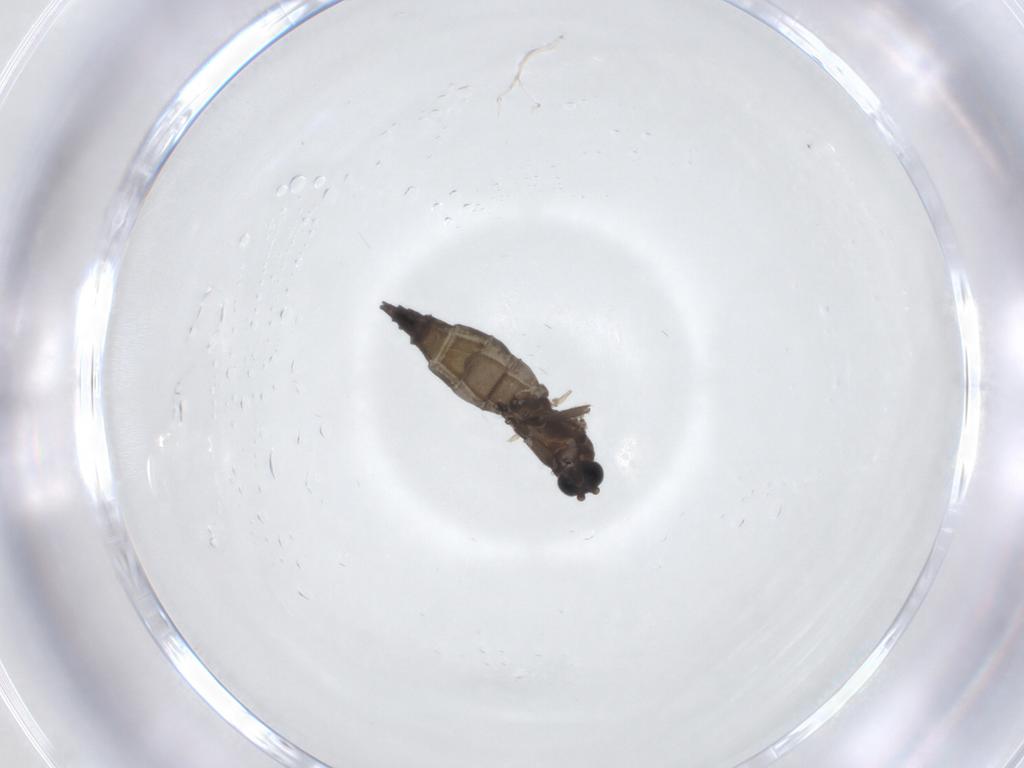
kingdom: Animalia
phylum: Arthropoda
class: Insecta
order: Diptera
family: Sciaridae
